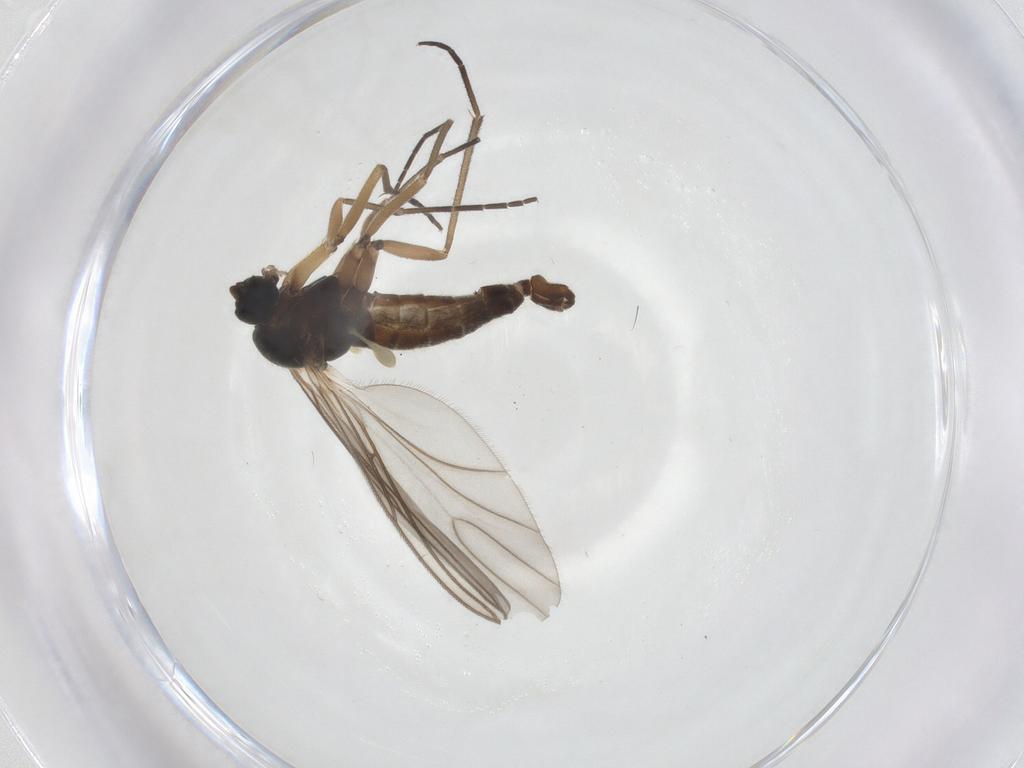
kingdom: Animalia
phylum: Arthropoda
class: Insecta
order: Diptera
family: Sciaridae
